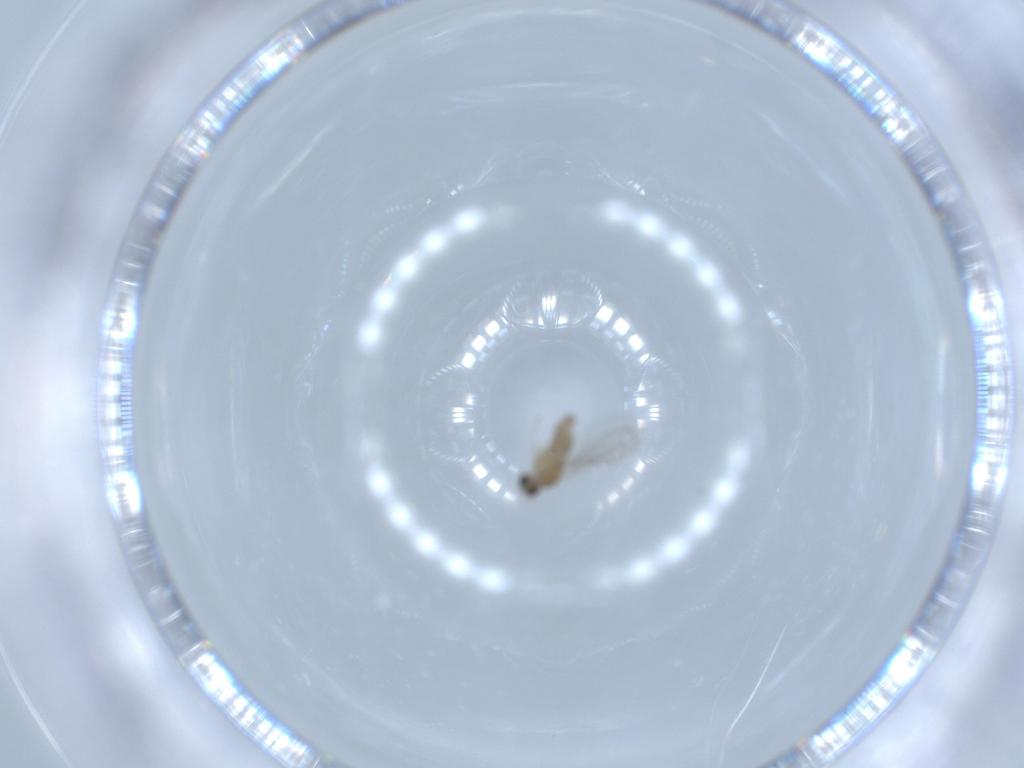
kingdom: Animalia
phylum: Arthropoda
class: Insecta
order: Diptera
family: Cecidomyiidae
